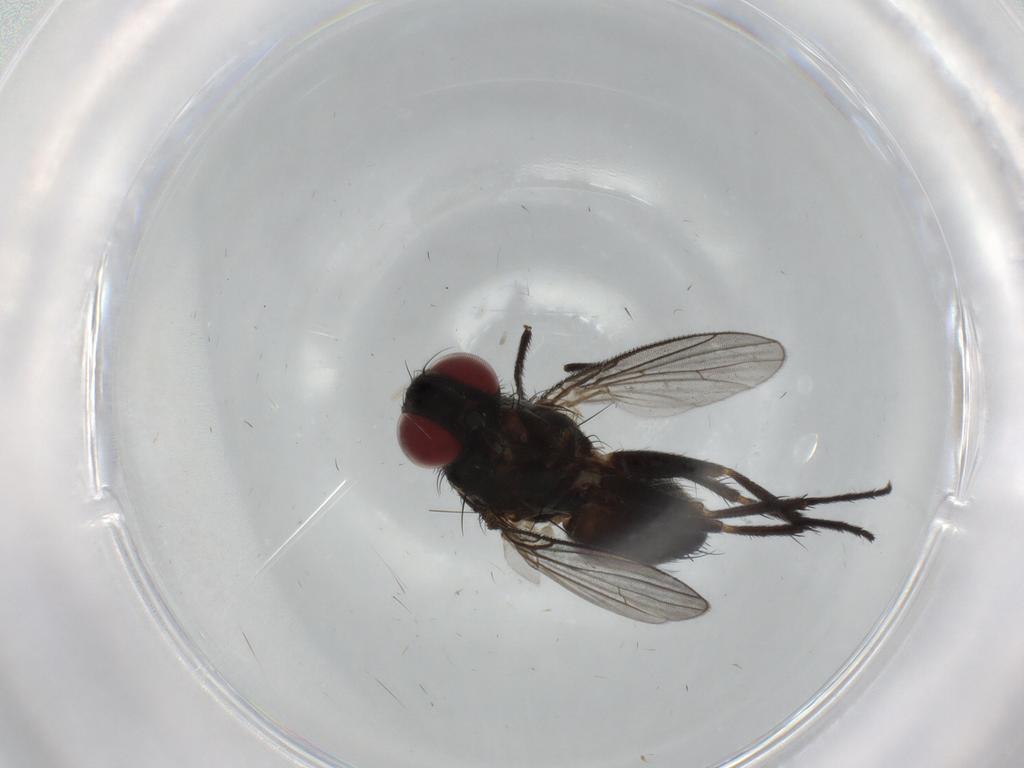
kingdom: Animalia
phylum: Arthropoda
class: Insecta
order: Diptera
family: Muscidae
